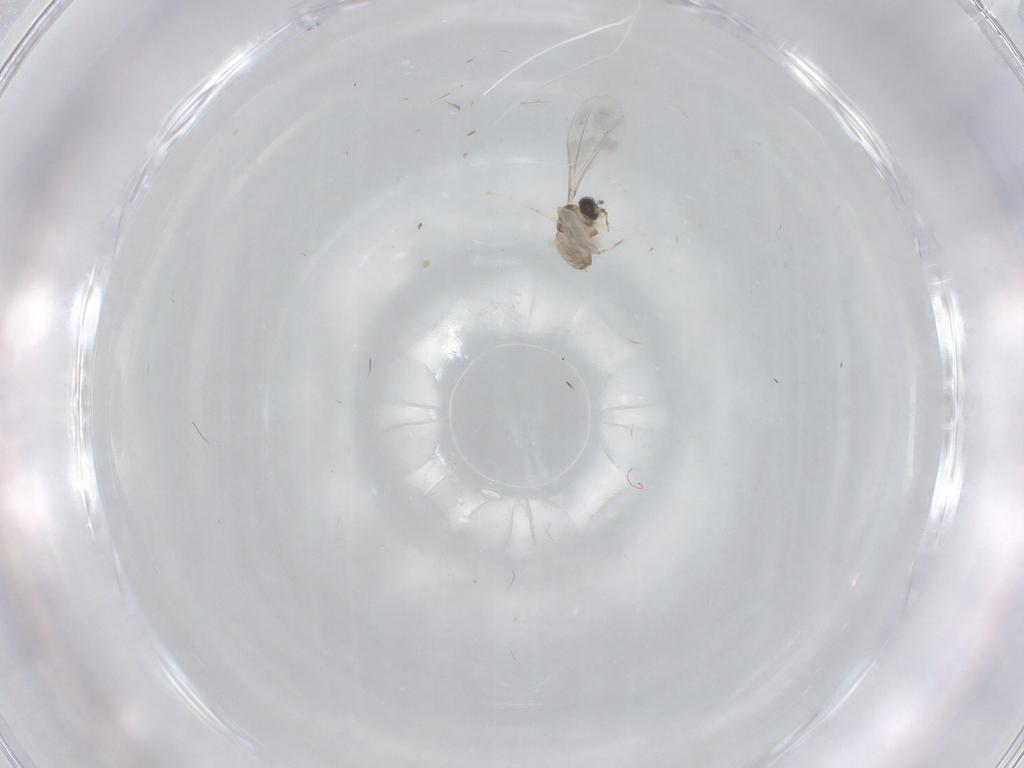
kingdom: Animalia
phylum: Arthropoda
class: Insecta
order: Diptera
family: Cecidomyiidae
